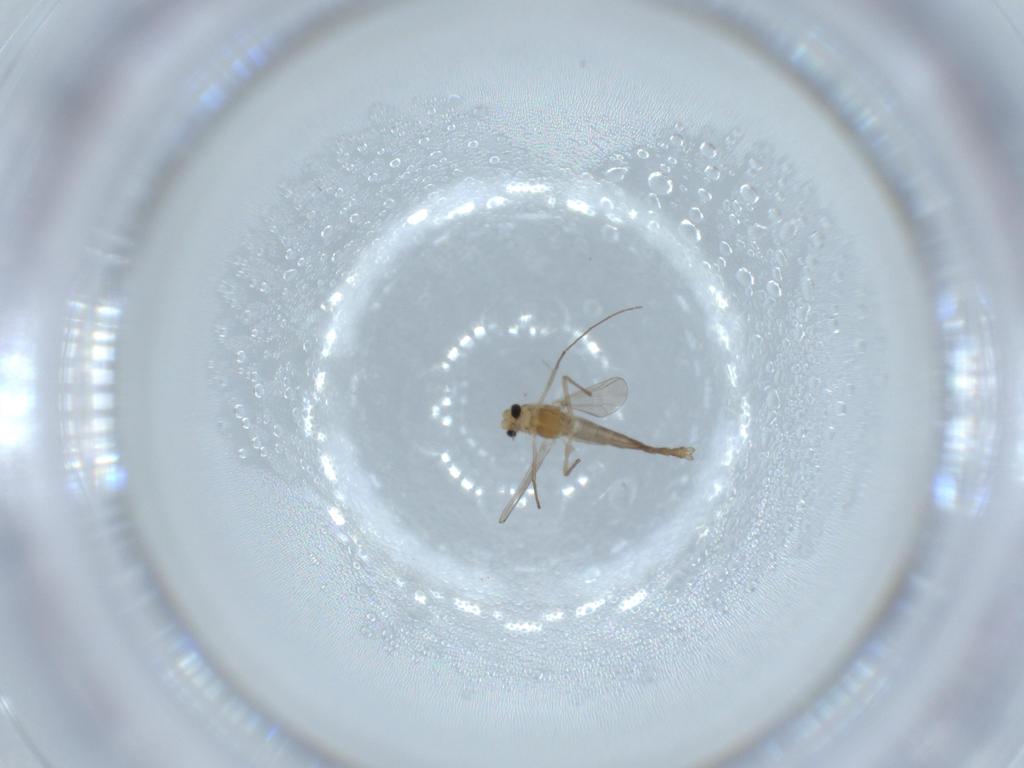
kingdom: Animalia
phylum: Arthropoda
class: Insecta
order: Diptera
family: Chironomidae
